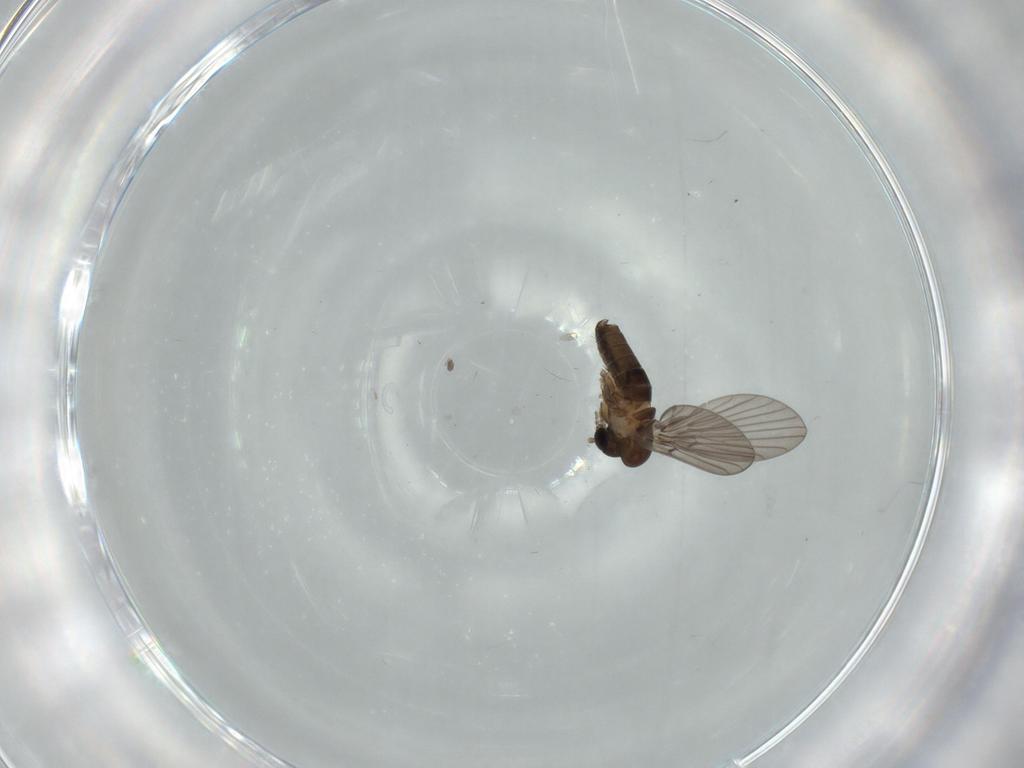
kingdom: Animalia
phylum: Arthropoda
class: Insecta
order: Diptera
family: Psychodidae
